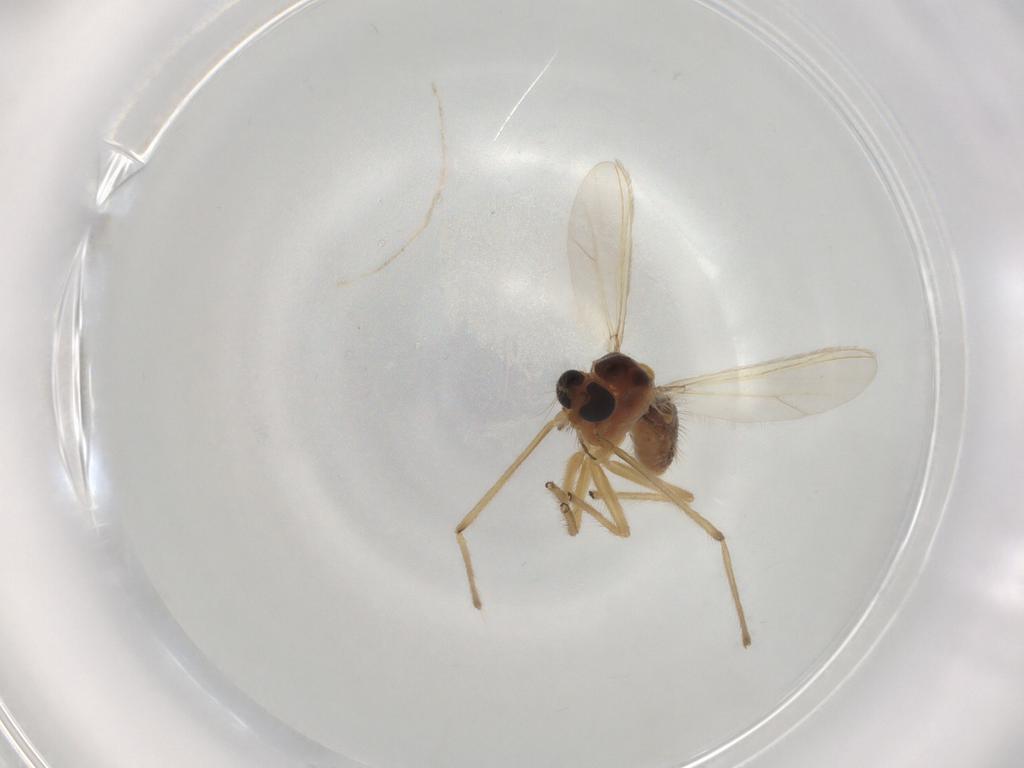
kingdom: Animalia
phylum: Arthropoda
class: Insecta
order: Diptera
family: Chironomidae
